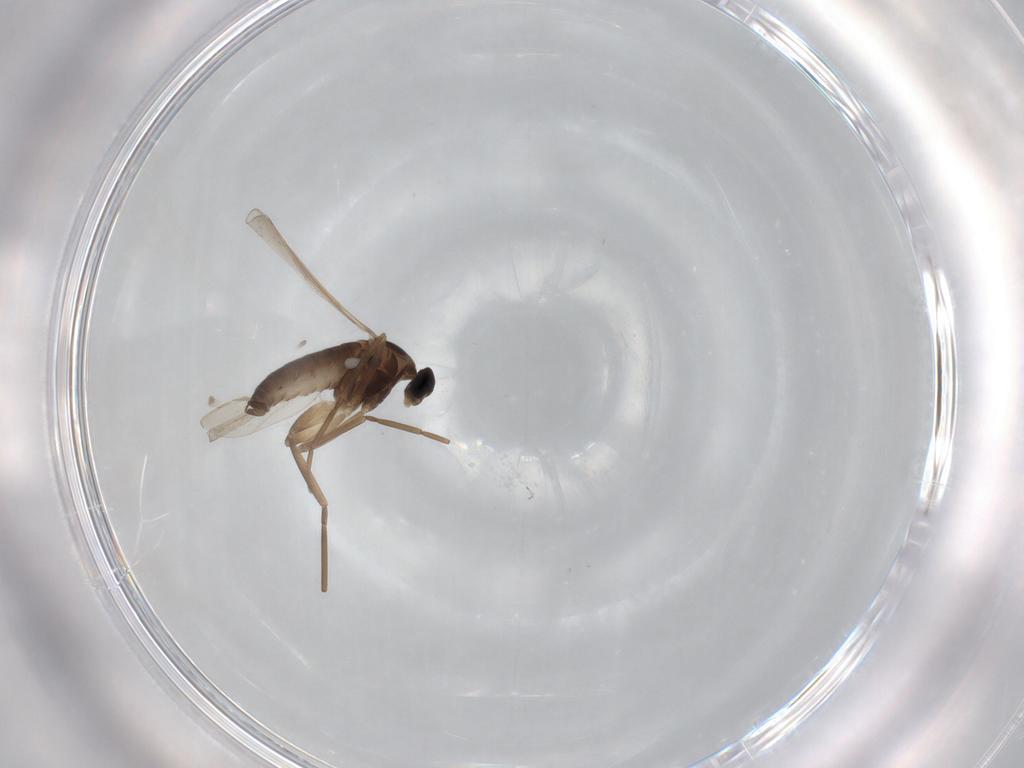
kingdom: Animalia
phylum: Arthropoda
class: Insecta
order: Diptera
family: Cecidomyiidae
